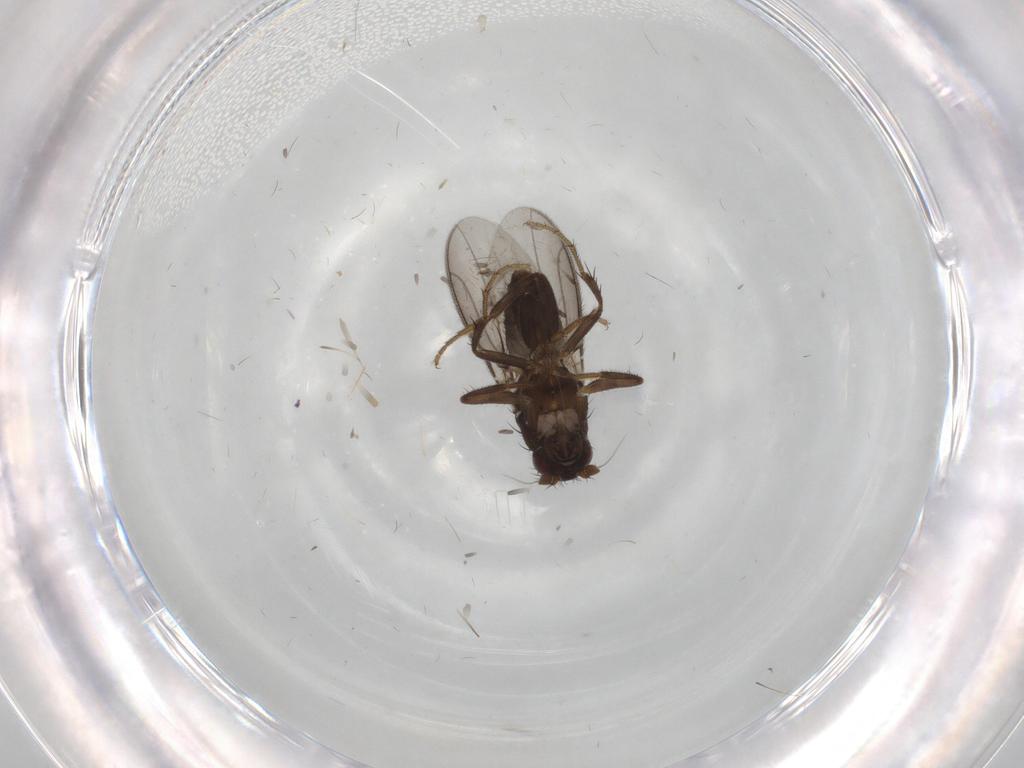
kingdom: Animalia
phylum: Arthropoda
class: Insecta
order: Diptera
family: Sphaeroceridae
